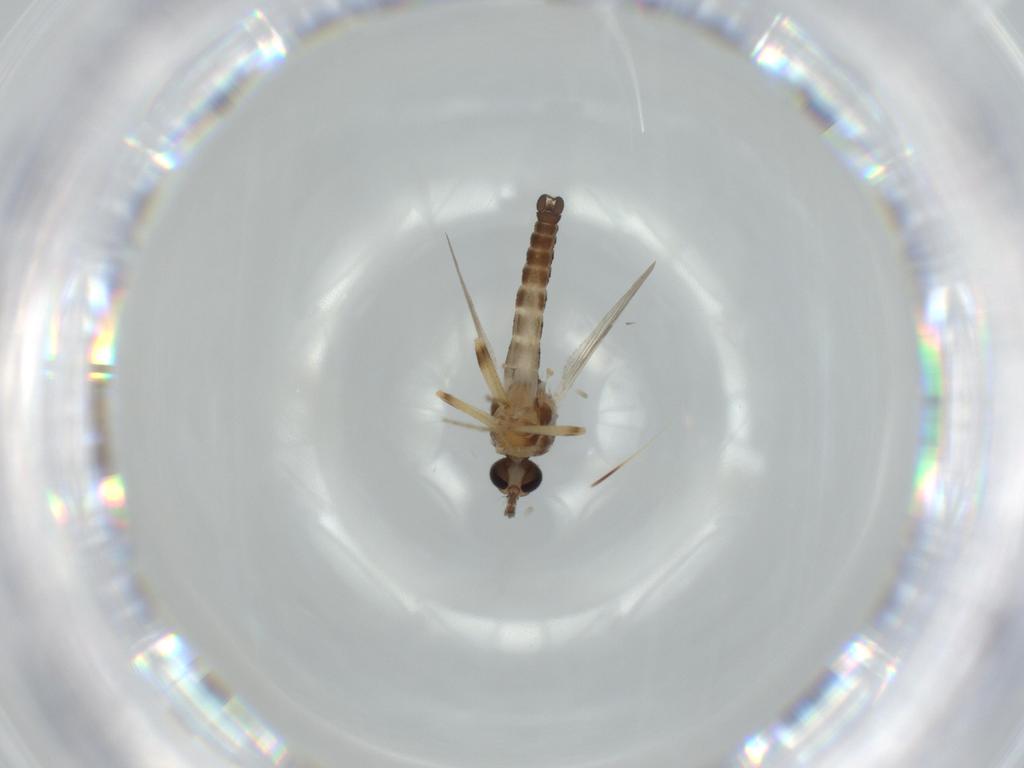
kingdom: Animalia
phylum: Arthropoda
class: Insecta
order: Diptera
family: Ceratopogonidae
